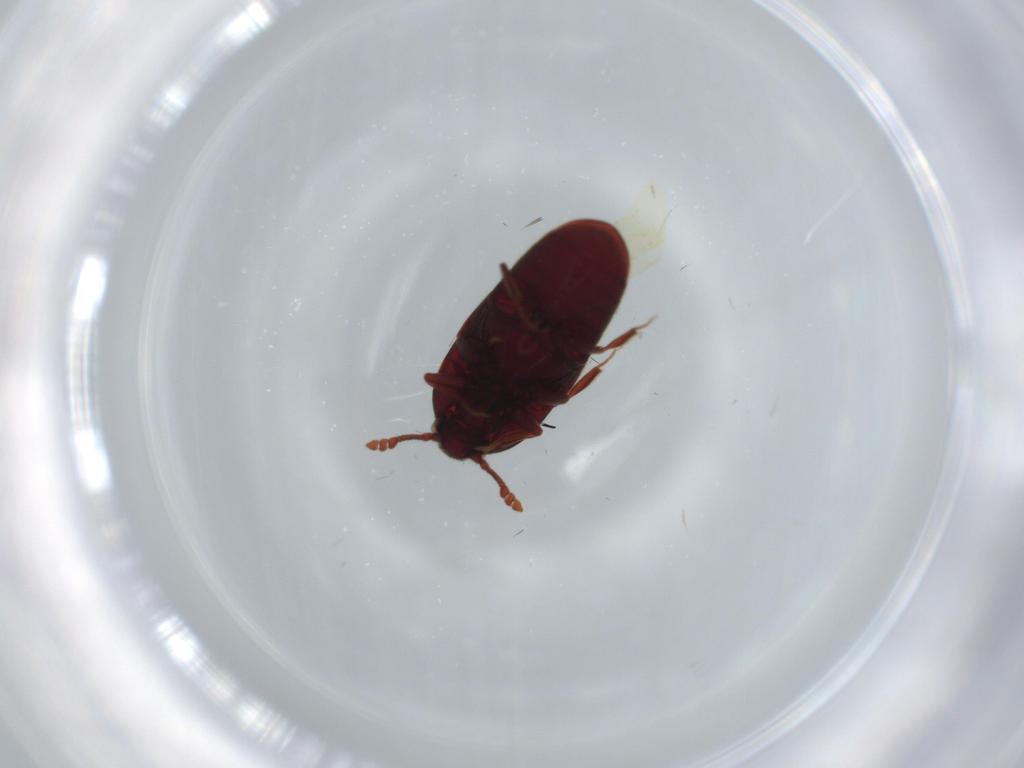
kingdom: Animalia
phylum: Arthropoda
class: Insecta
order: Coleoptera
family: Throscidae
